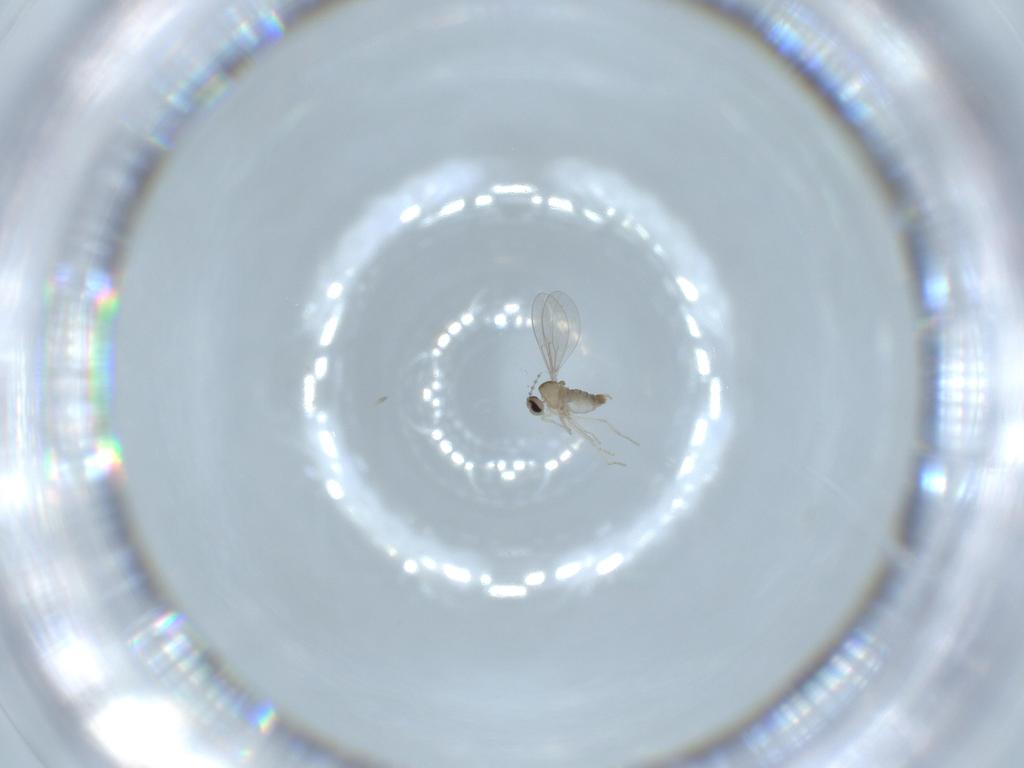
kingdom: Animalia
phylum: Arthropoda
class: Insecta
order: Diptera
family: Cecidomyiidae
